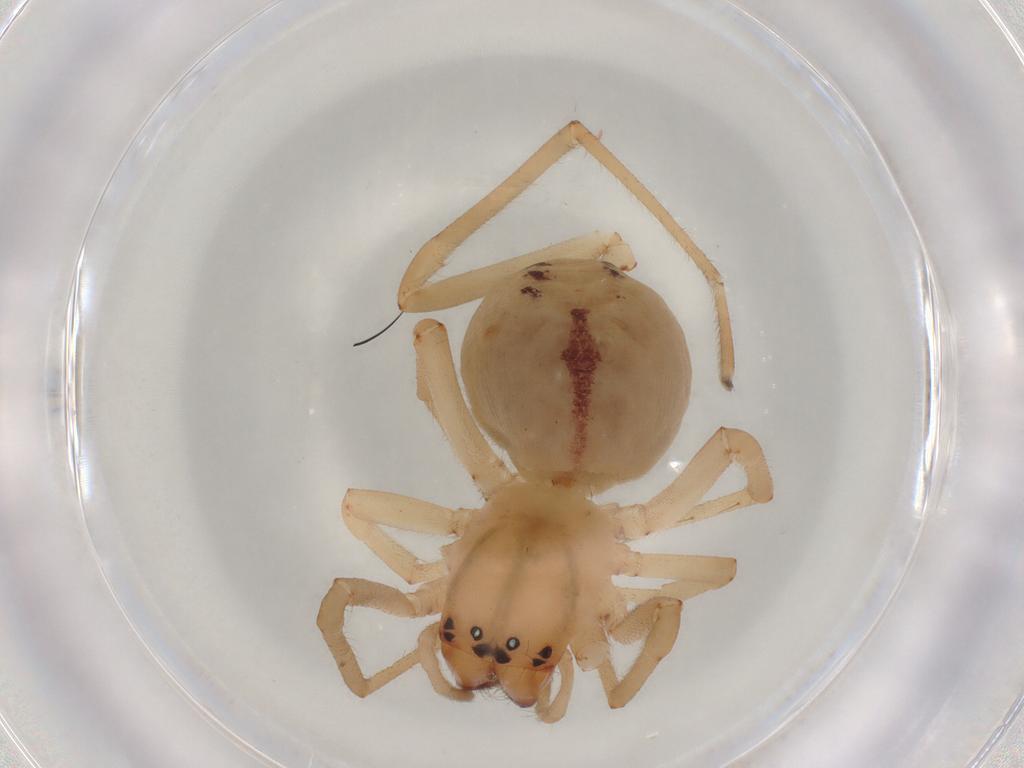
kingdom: Animalia
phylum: Arthropoda
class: Arachnida
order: Araneae
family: Cheiracanthiidae
